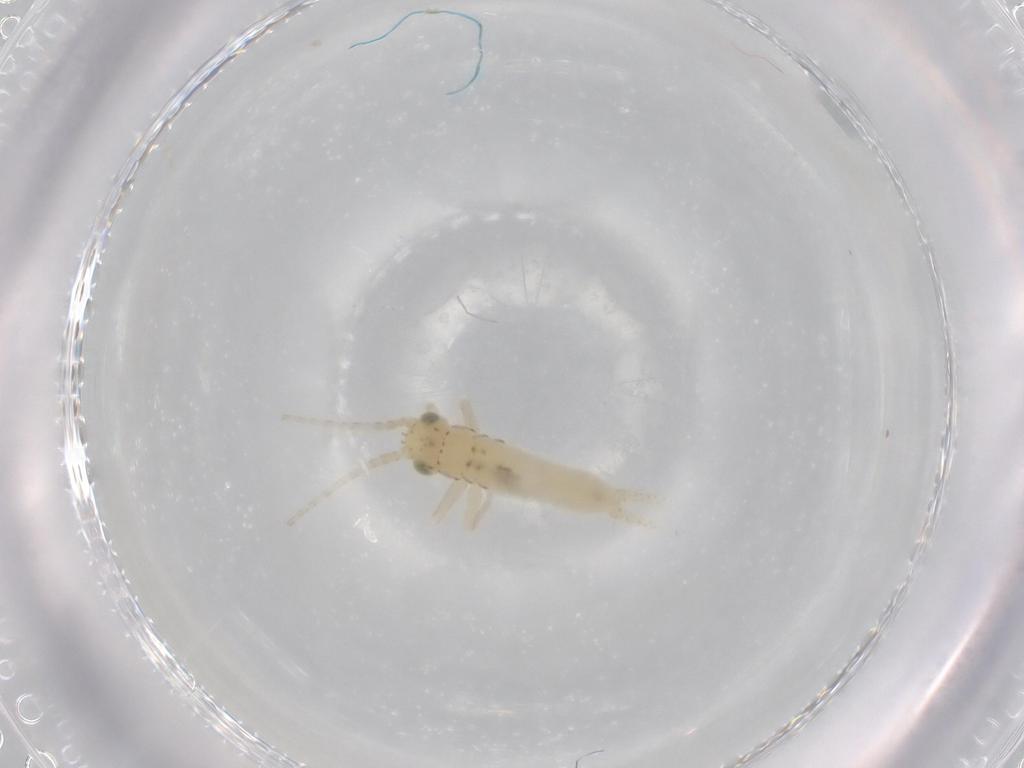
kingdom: Animalia
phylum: Arthropoda
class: Insecta
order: Orthoptera
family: Trigonidiidae
